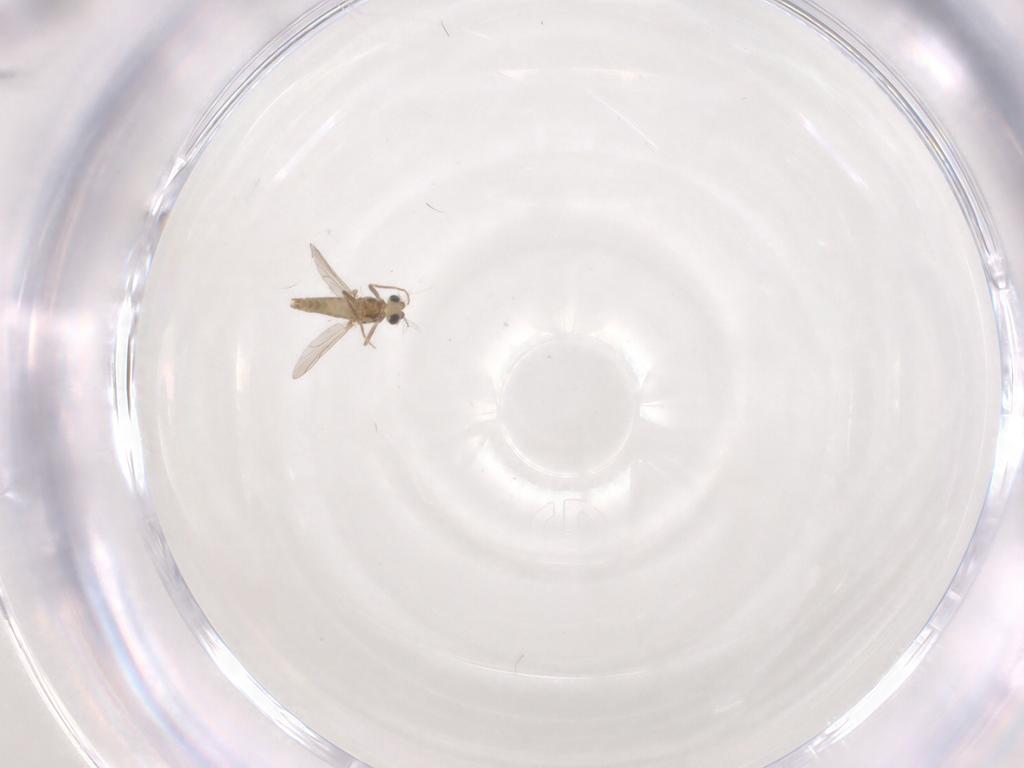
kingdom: Animalia
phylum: Arthropoda
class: Insecta
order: Diptera
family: Chironomidae
